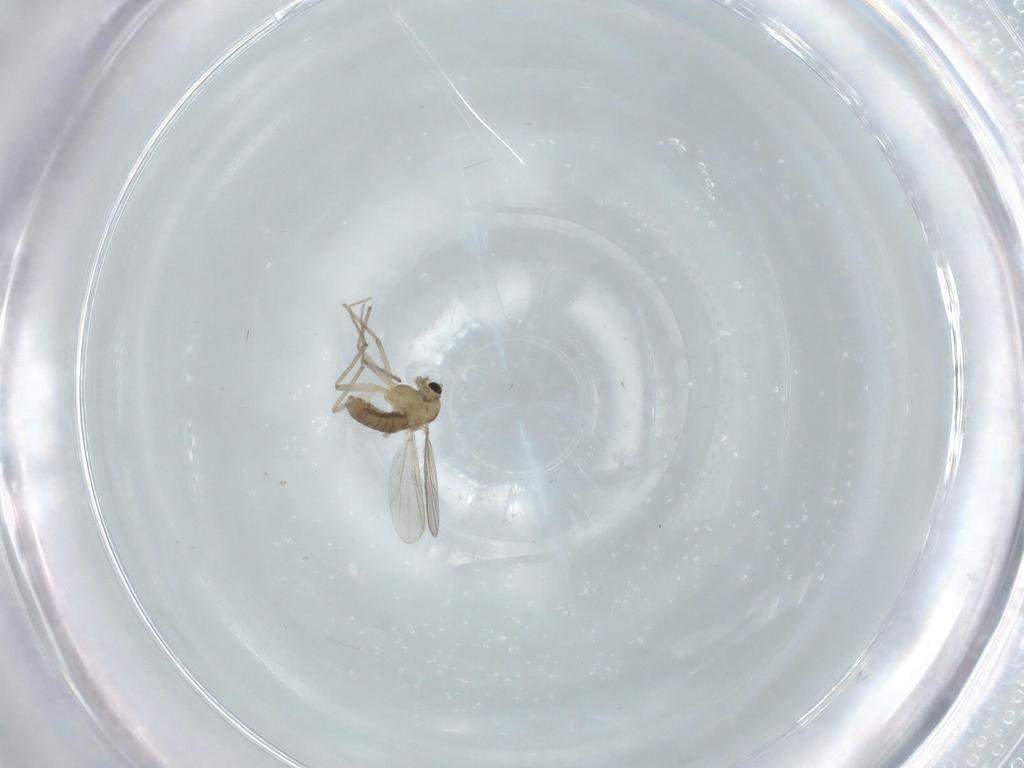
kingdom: Animalia
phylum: Arthropoda
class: Insecta
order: Diptera
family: Chironomidae
